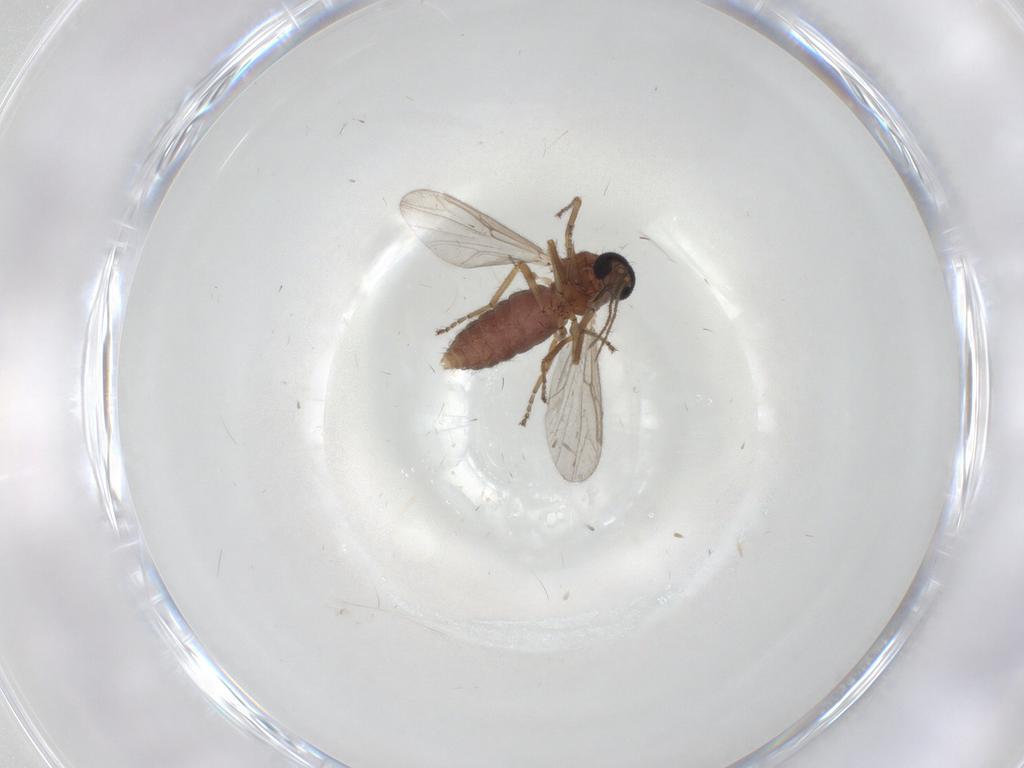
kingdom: Animalia
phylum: Arthropoda
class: Insecta
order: Diptera
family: Ceratopogonidae
